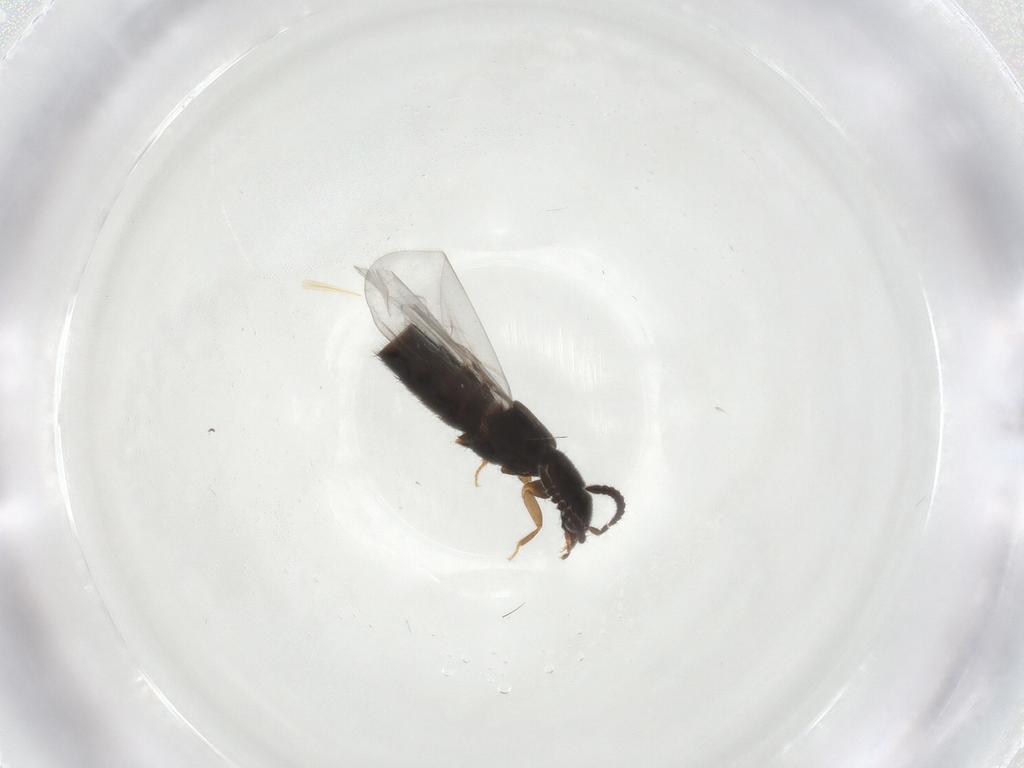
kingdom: Animalia
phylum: Arthropoda
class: Insecta
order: Coleoptera
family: Staphylinidae
